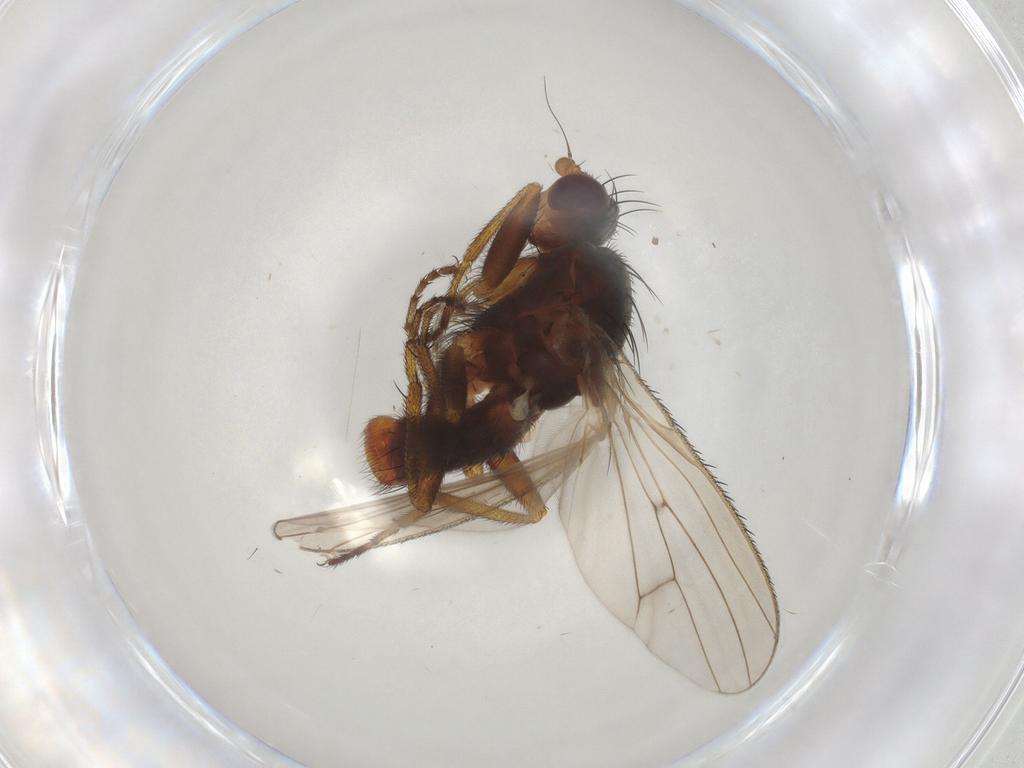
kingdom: Animalia
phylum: Arthropoda
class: Insecta
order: Diptera
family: Heleomyzidae
